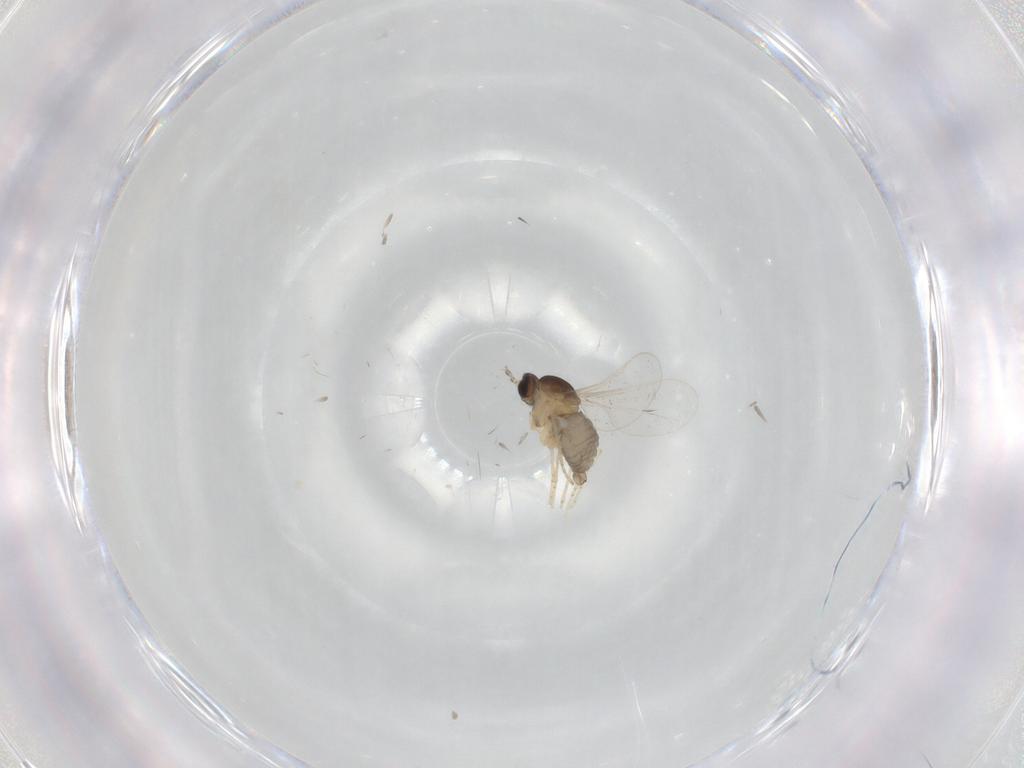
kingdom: Animalia
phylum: Arthropoda
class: Insecta
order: Diptera
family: Cecidomyiidae
